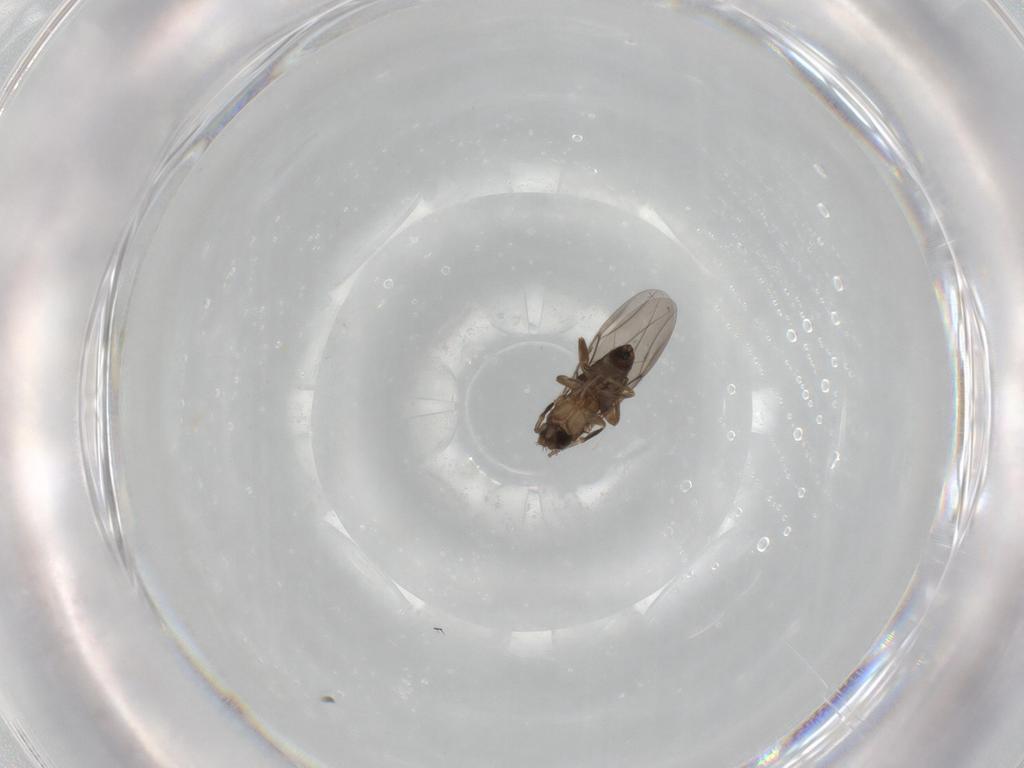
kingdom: Animalia
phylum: Arthropoda
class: Insecta
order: Diptera
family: Phoridae
